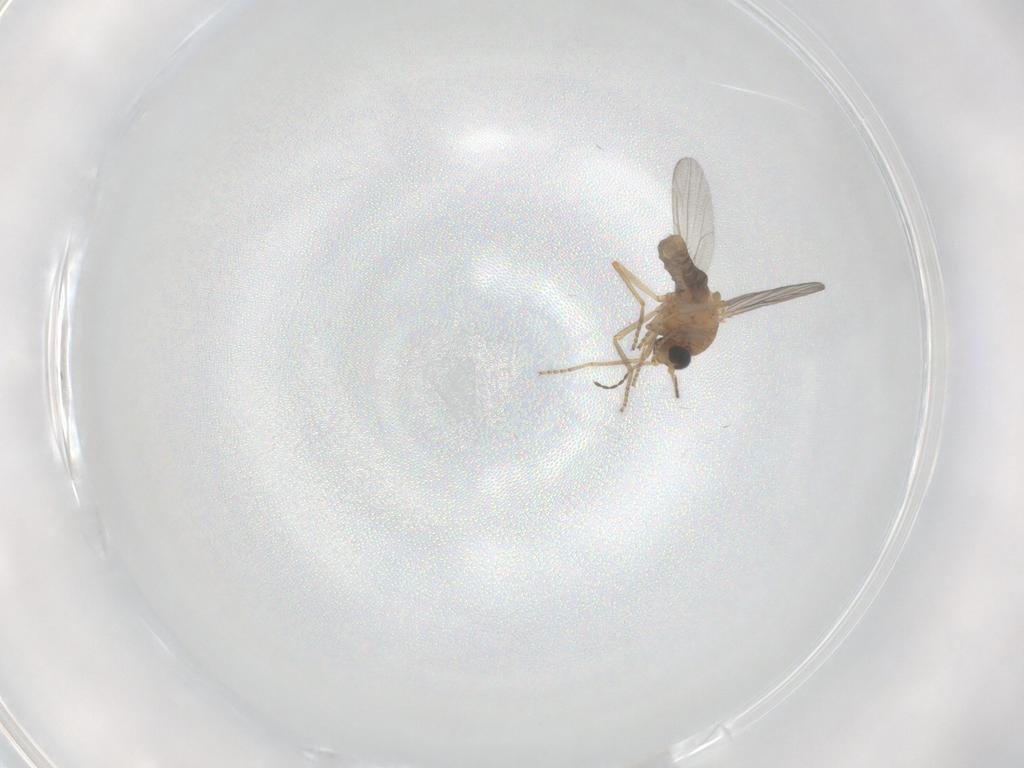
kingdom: Animalia
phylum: Arthropoda
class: Insecta
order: Diptera
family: Ceratopogonidae
